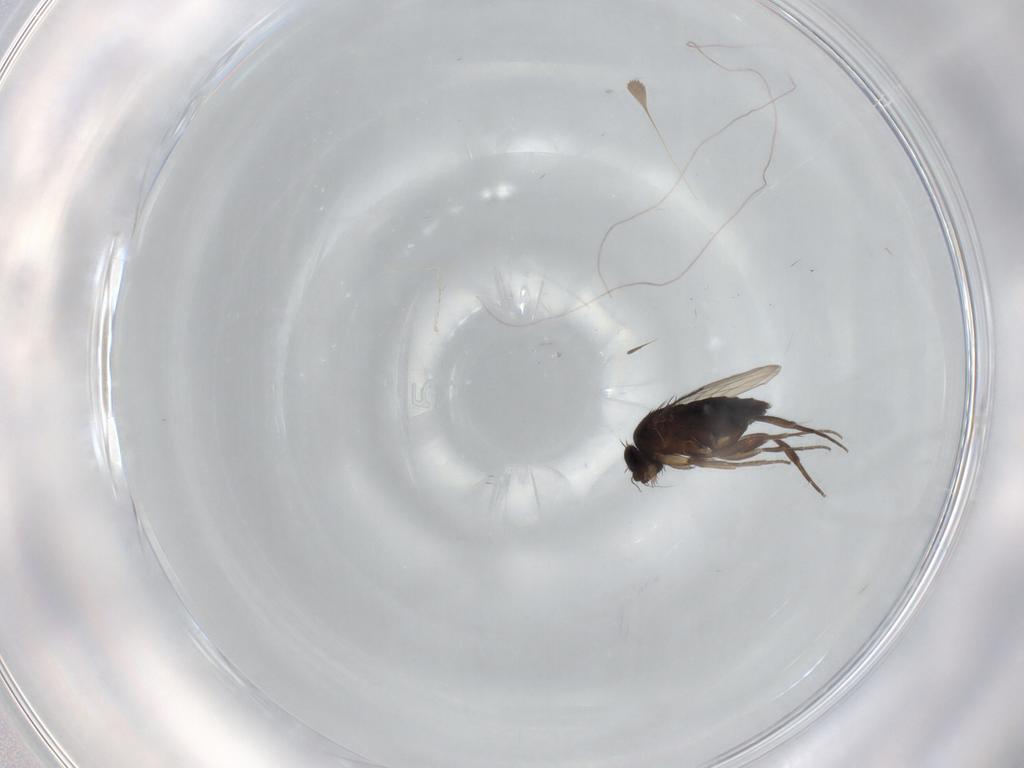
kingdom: Animalia
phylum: Arthropoda
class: Insecta
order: Diptera
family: Phoridae
